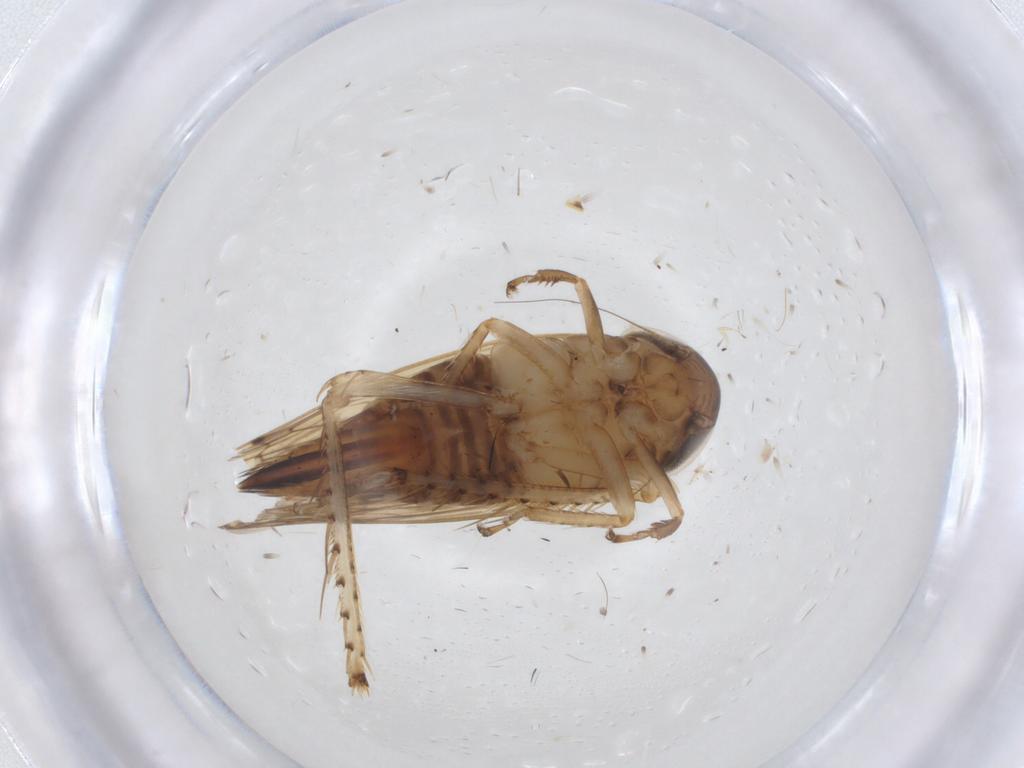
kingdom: Animalia
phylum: Arthropoda
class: Insecta
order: Hemiptera
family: Cicadellidae
